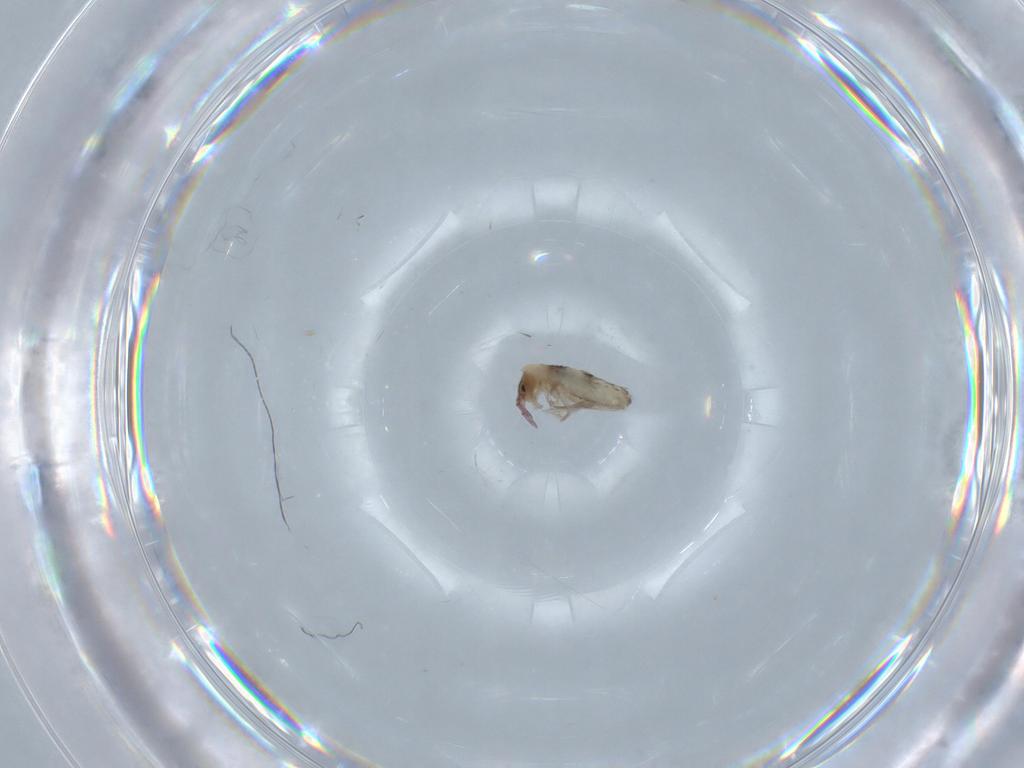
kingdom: Animalia
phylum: Arthropoda
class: Collembola
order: Entomobryomorpha
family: Entomobryidae
